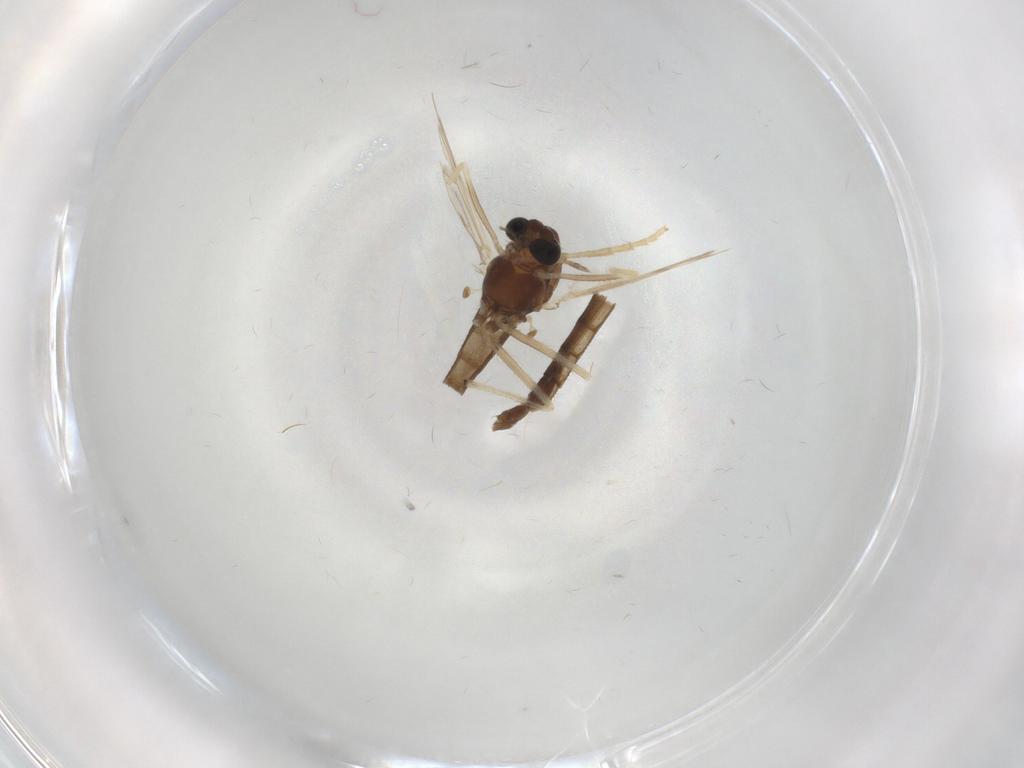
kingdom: Animalia
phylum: Arthropoda
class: Insecta
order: Diptera
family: Chironomidae
